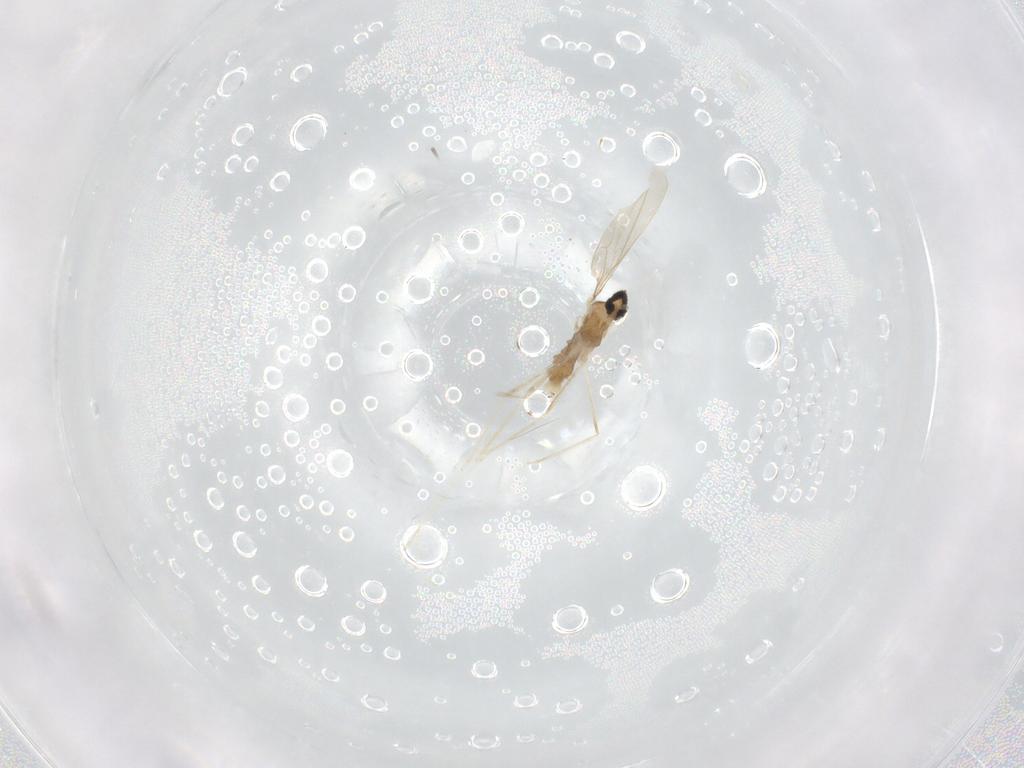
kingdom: Animalia
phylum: Arthropoda
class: Insecta
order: Diptera
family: Cecidomyiidae
